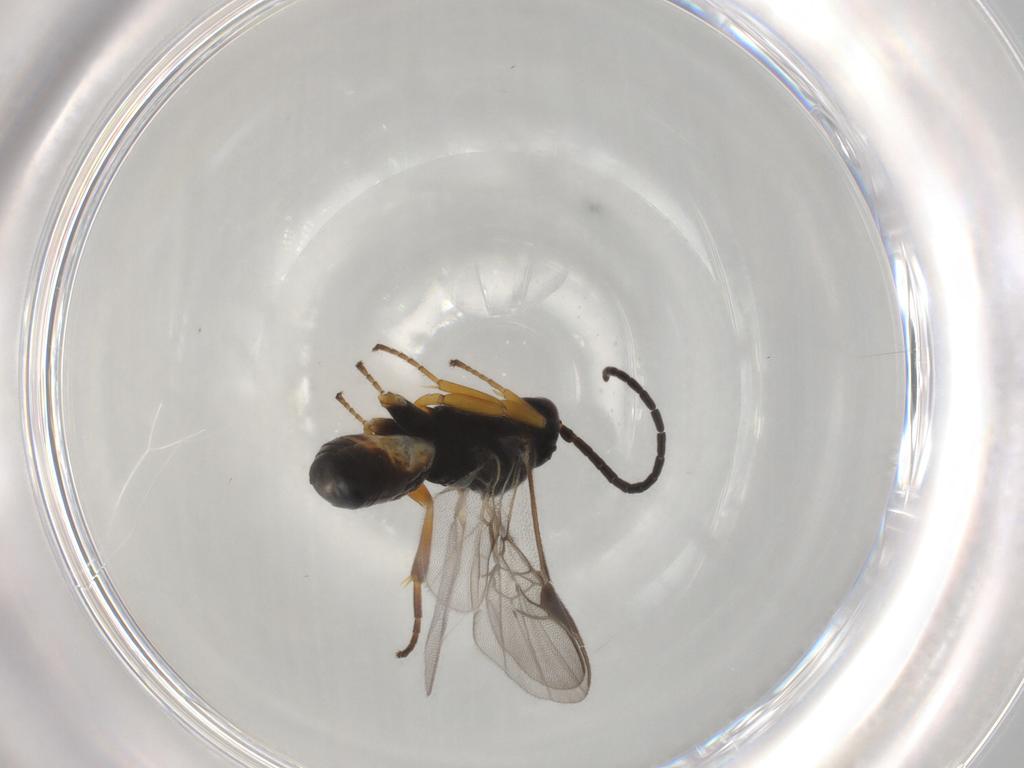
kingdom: Animalia
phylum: Arthropoda
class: Insecta
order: Hymenoptera
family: Braconidae
